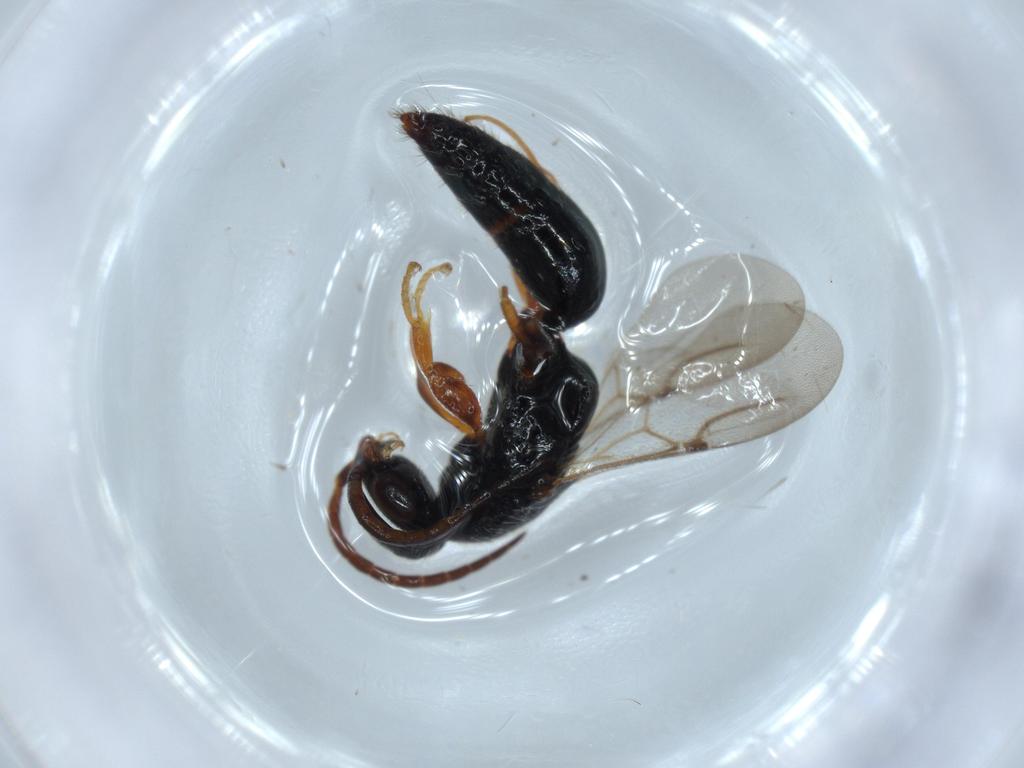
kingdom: Animalia
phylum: Arthropoda
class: Insecta
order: Hymenoptera
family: Bethylidae
